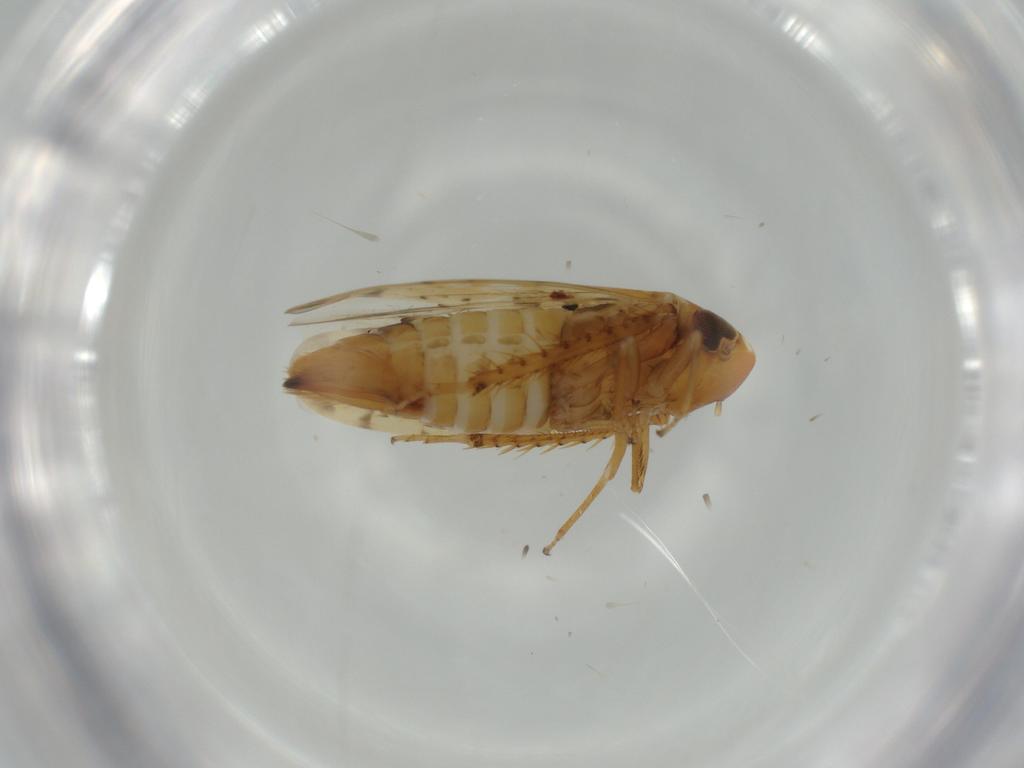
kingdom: Animalia
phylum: Arthropoda
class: Insecta
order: Hemiptera
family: Cicadellidae
